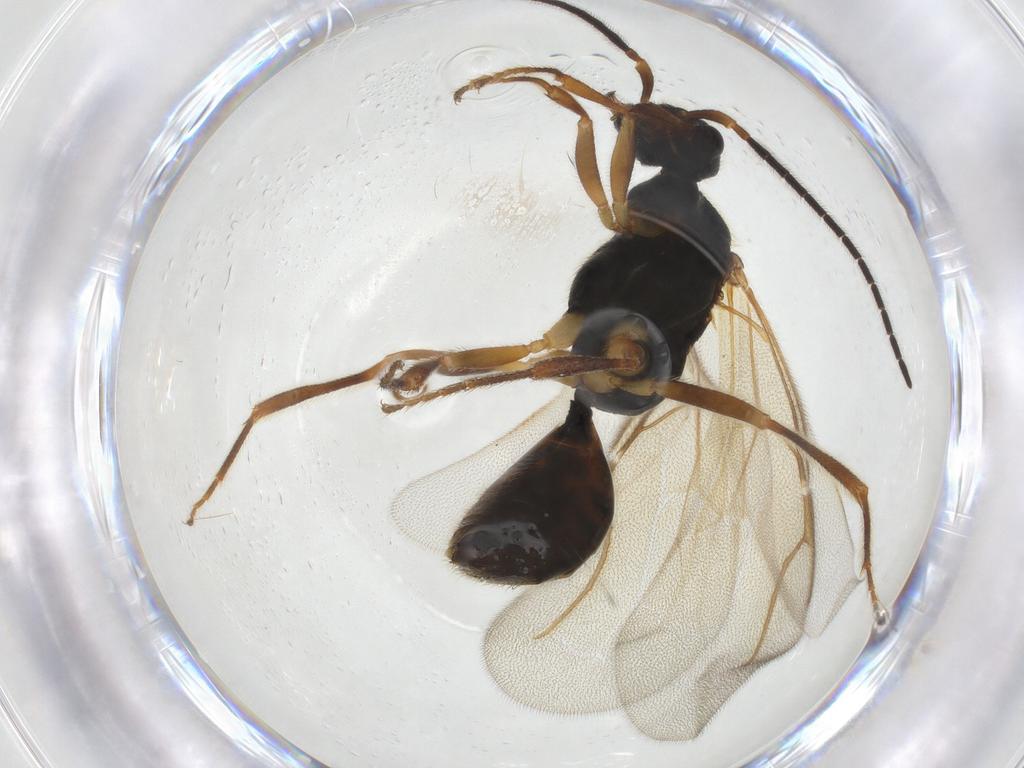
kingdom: Animalia
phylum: Arthropoda
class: Insecta
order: Hymenoptera
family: Bethylidae
